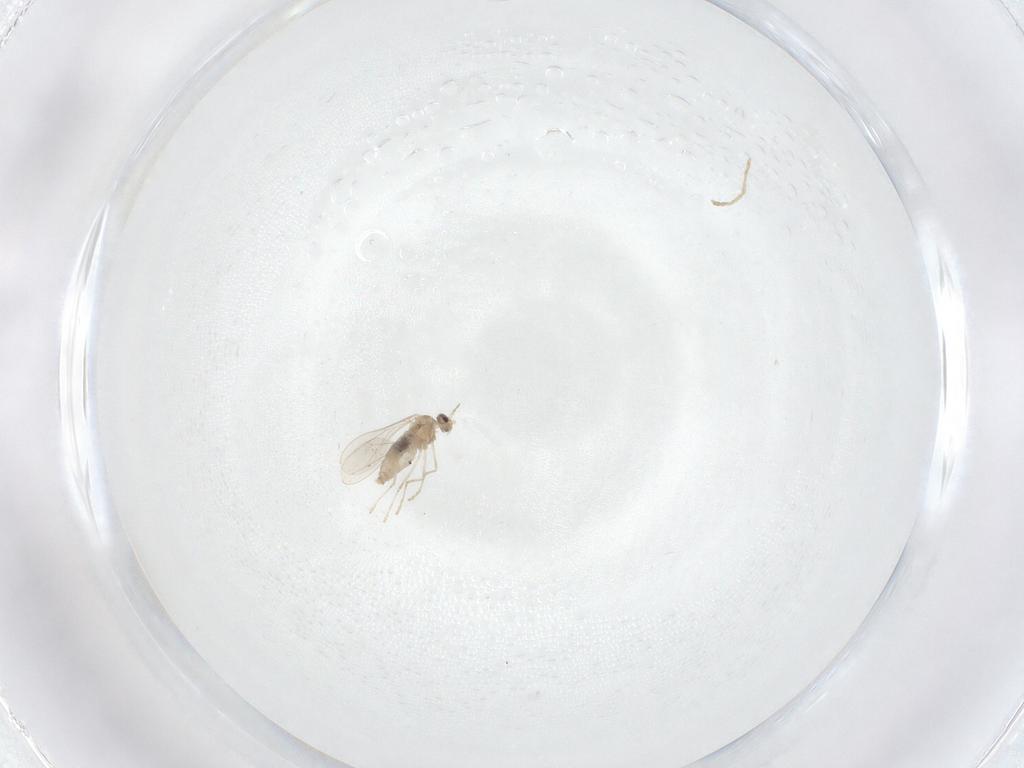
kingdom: Animalia
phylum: Arthropoda
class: Insecta
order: Diptera
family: Cecidomyiidae
